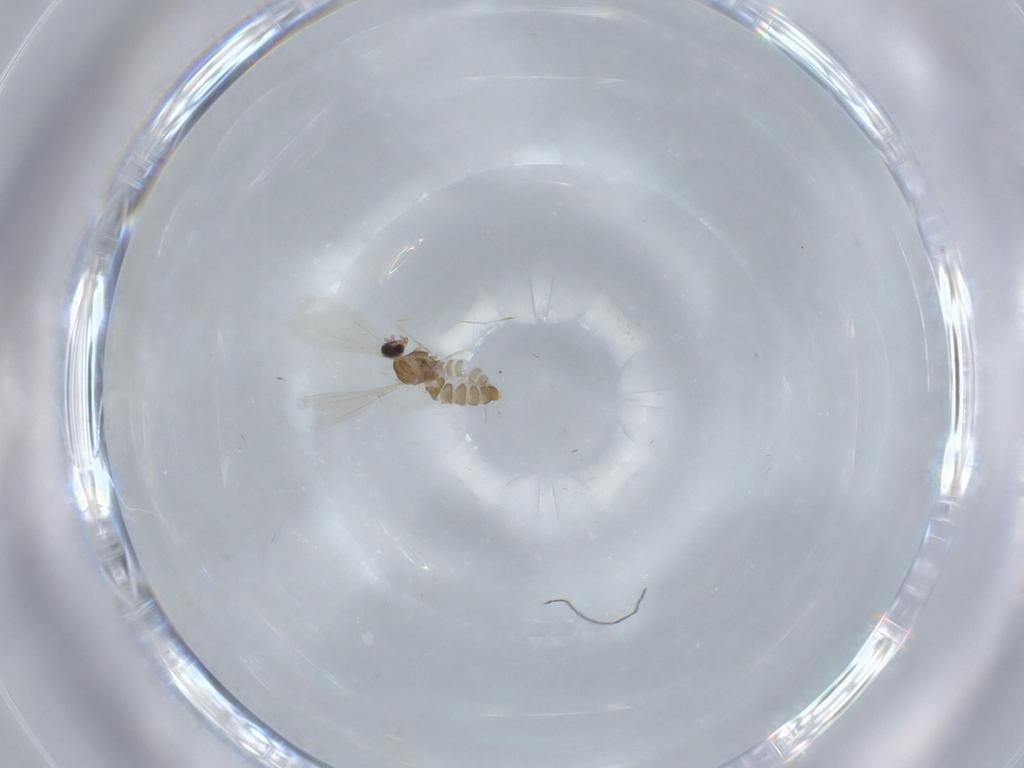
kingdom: Animalia
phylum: Arthropoda
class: Insecta
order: Diptera
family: Cecidomyiidae
